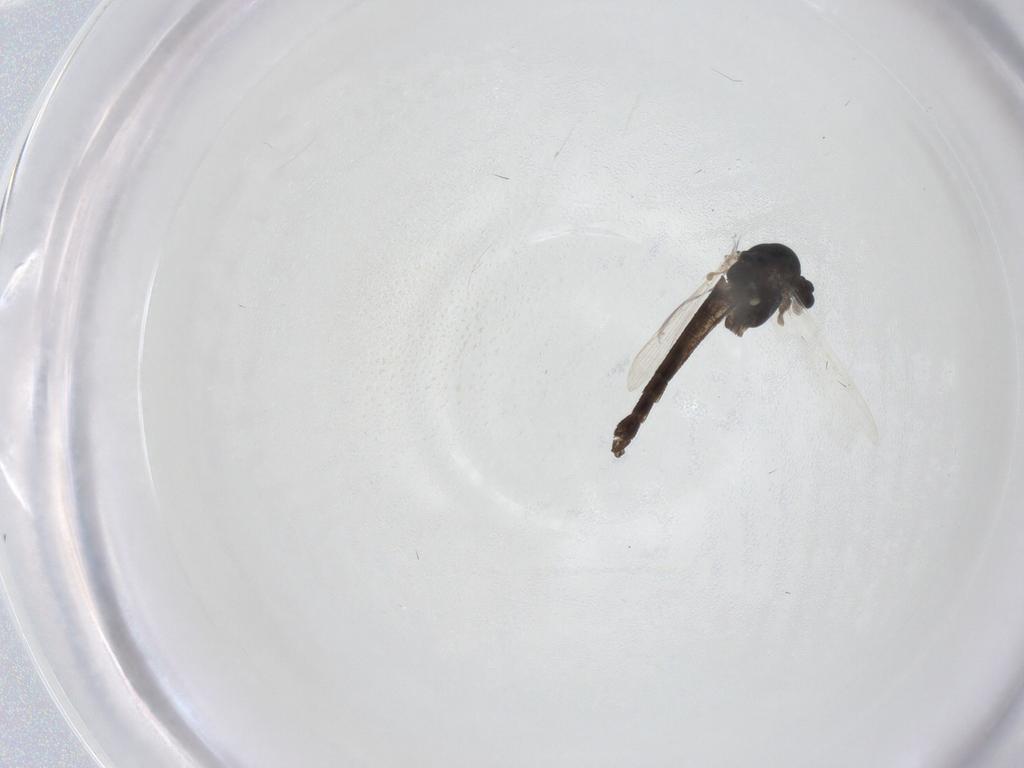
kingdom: Animalia
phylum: Arthropoda
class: Insecta
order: Diptera
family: Chironomidae
